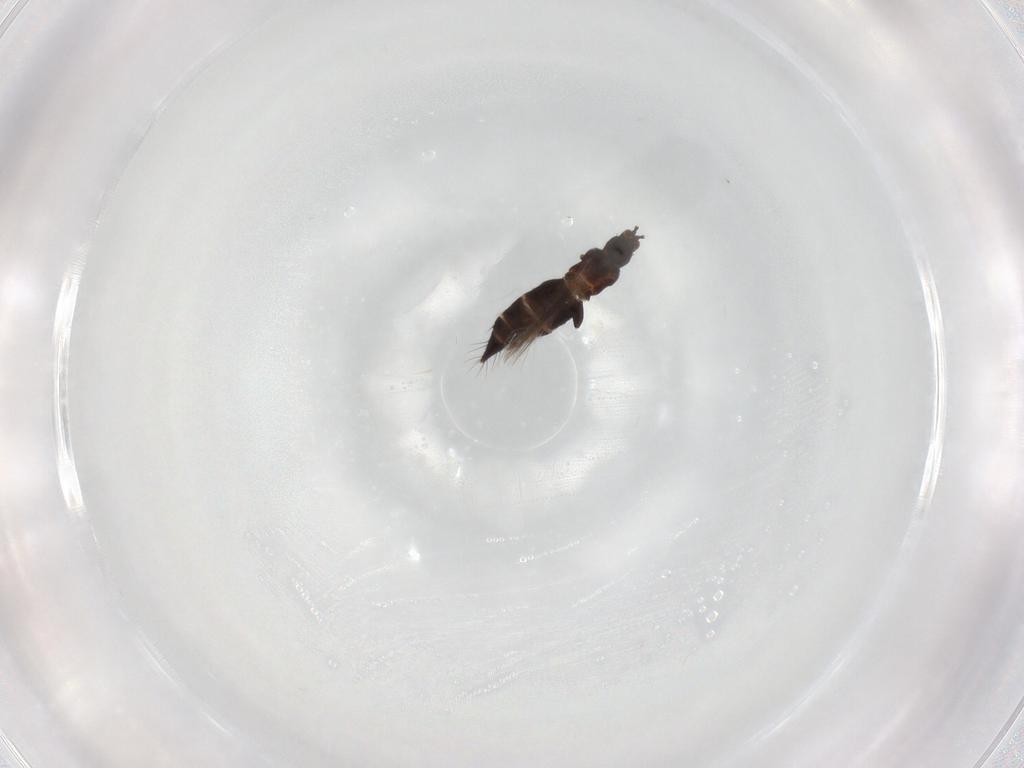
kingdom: Animalia
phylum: Arthropoda
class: Insecta
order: Thysanoptera
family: Thripidae
